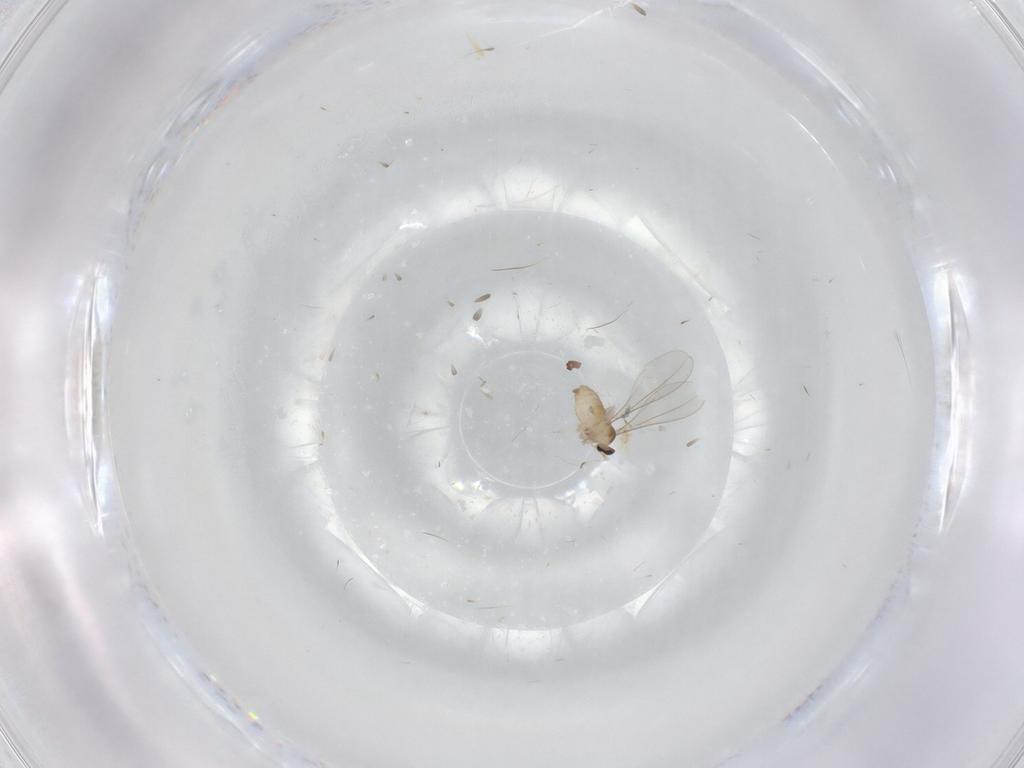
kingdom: Animalia
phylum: Arthropoda
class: Insecta
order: Diptera
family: Cecidomyiidae
